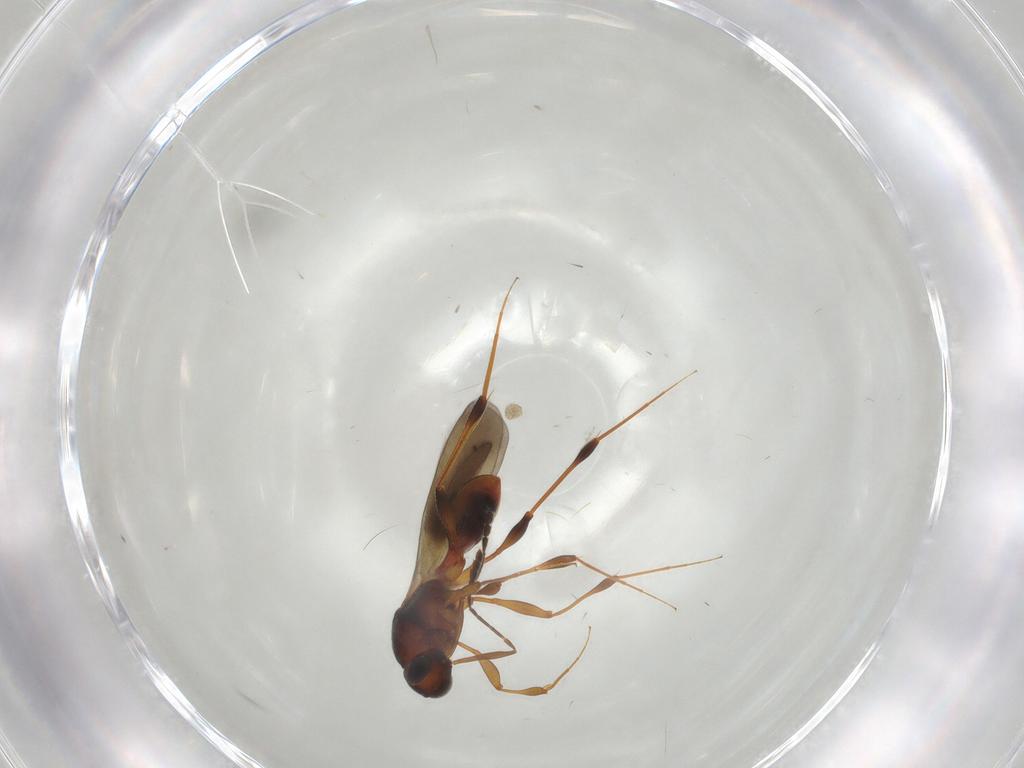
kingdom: Animalia
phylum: Arthropoda
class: Insecta
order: Hymenoptera
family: Platygastridae
